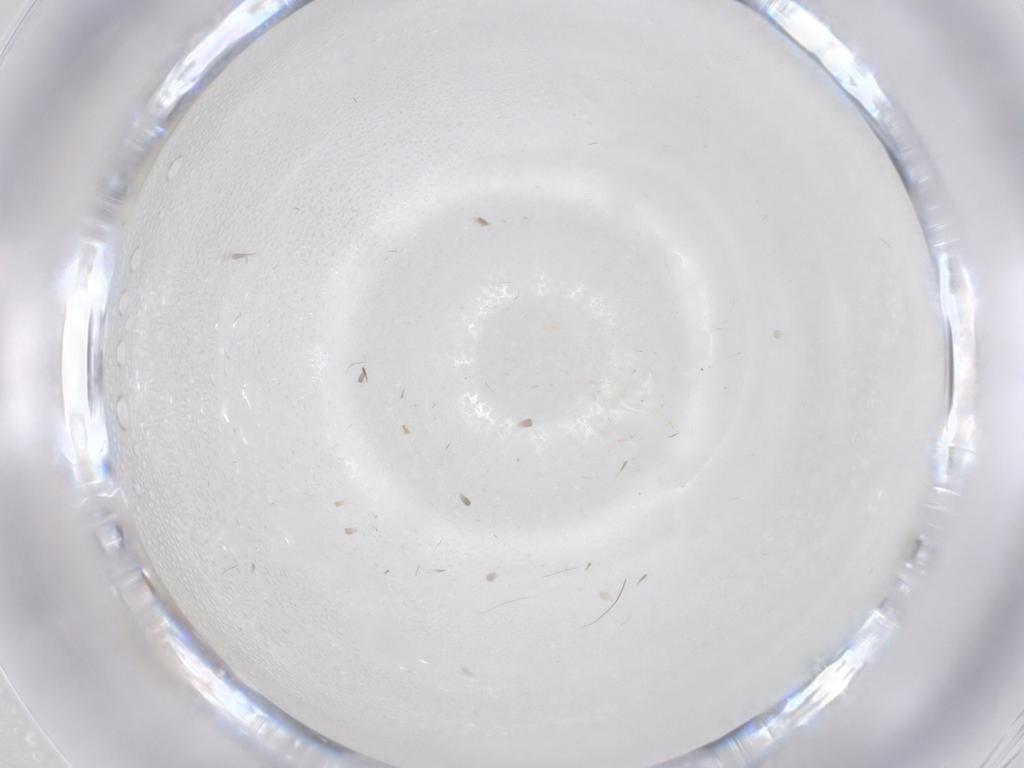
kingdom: Animalia
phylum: Arthropoda
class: Insecta
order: Diptera
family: Cecidomyiidae
